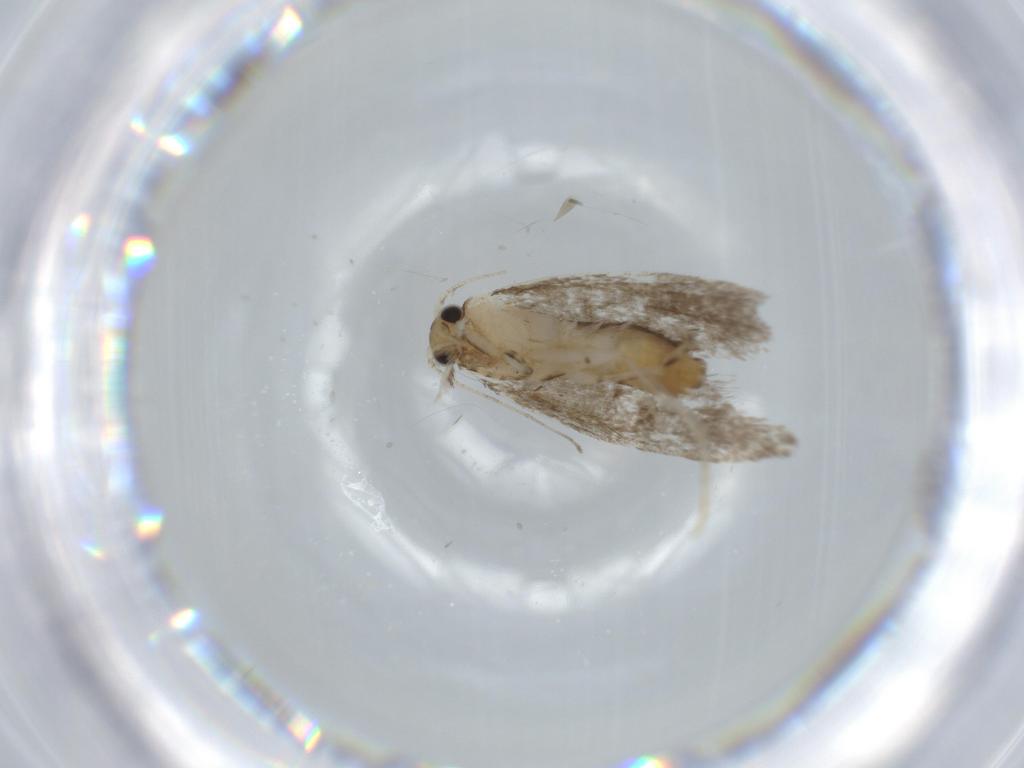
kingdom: Animalia
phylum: Arthropoda
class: Insecta
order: Lepidoptera
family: Tineidae
